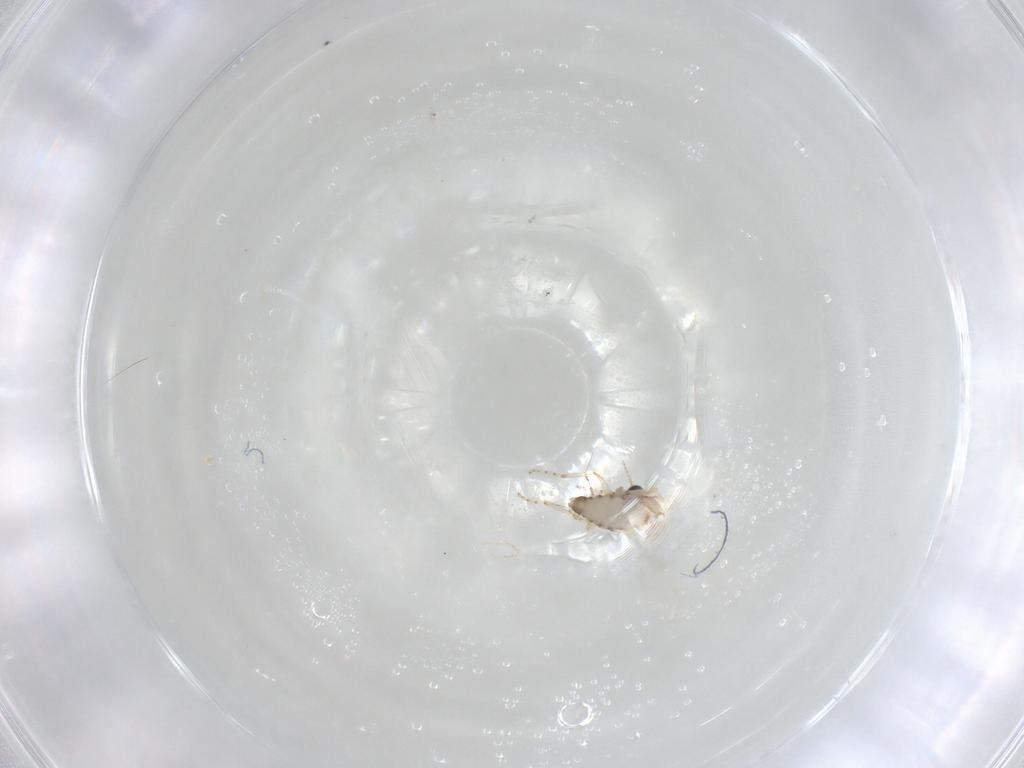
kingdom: Animalia
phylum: Arthropoda
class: Insecta
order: Diptera
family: Ceratopogonidae
